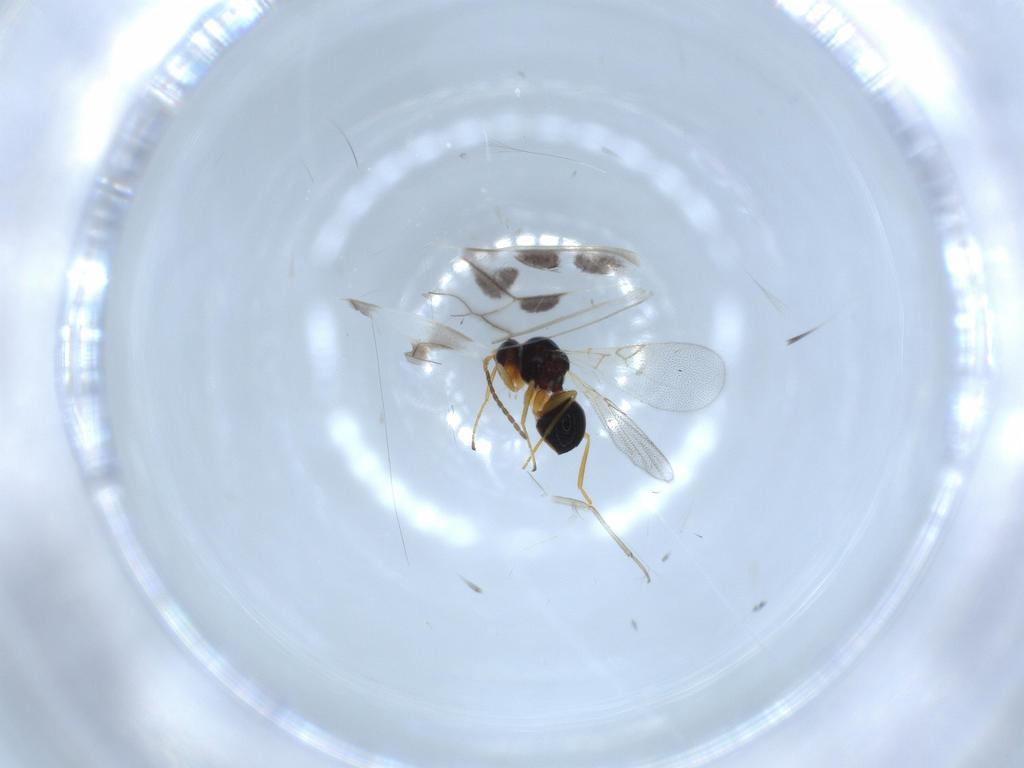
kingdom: Animalia
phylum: Arthropoda
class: Insecta
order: Hymenoptera
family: Figitidae
